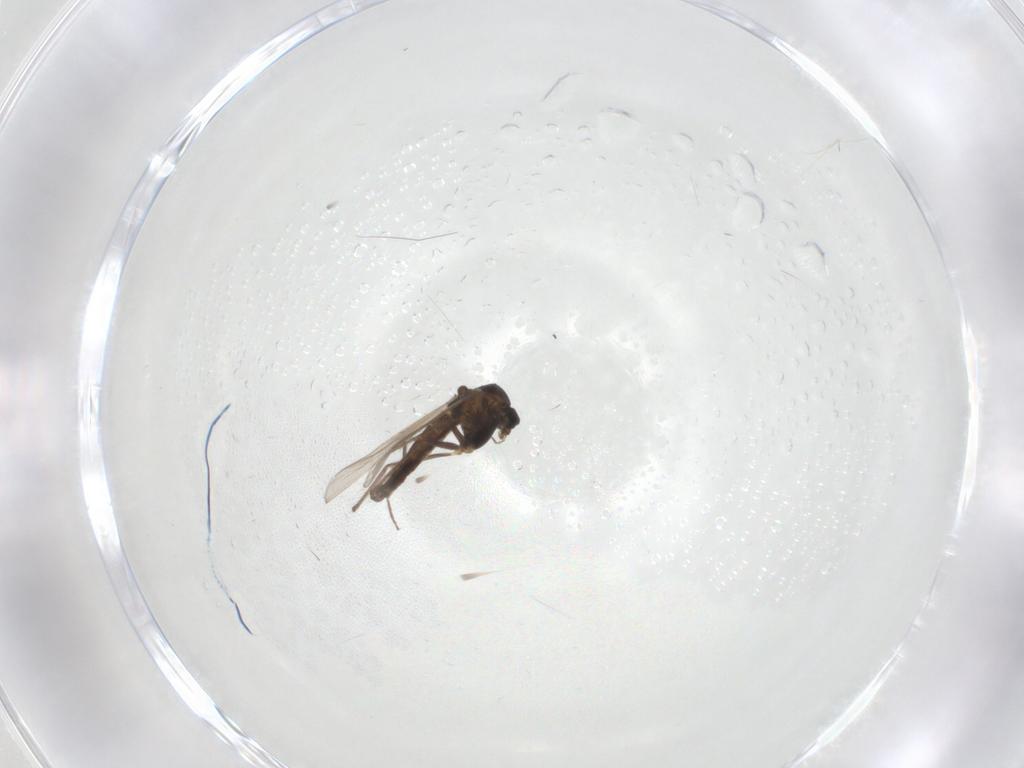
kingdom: Animalia
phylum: Arthropoda
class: Insecta
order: Diptera
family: Chironomidae
